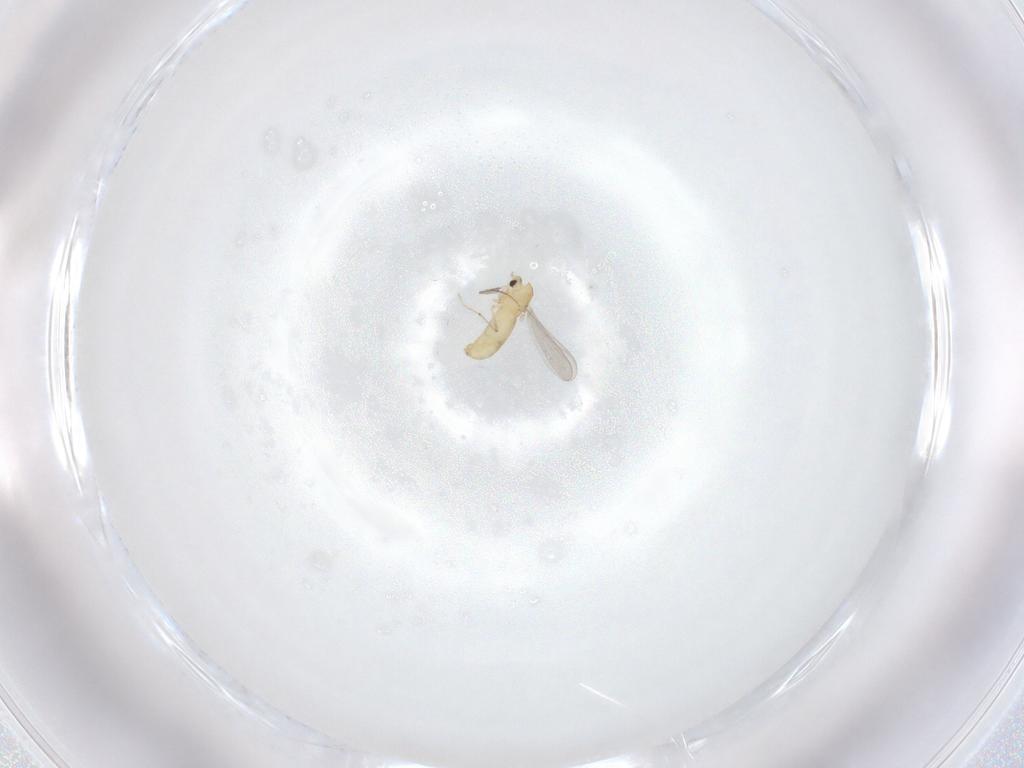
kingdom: Animalia
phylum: Arthropoda
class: Insecta
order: Diptera
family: Chironomidae
